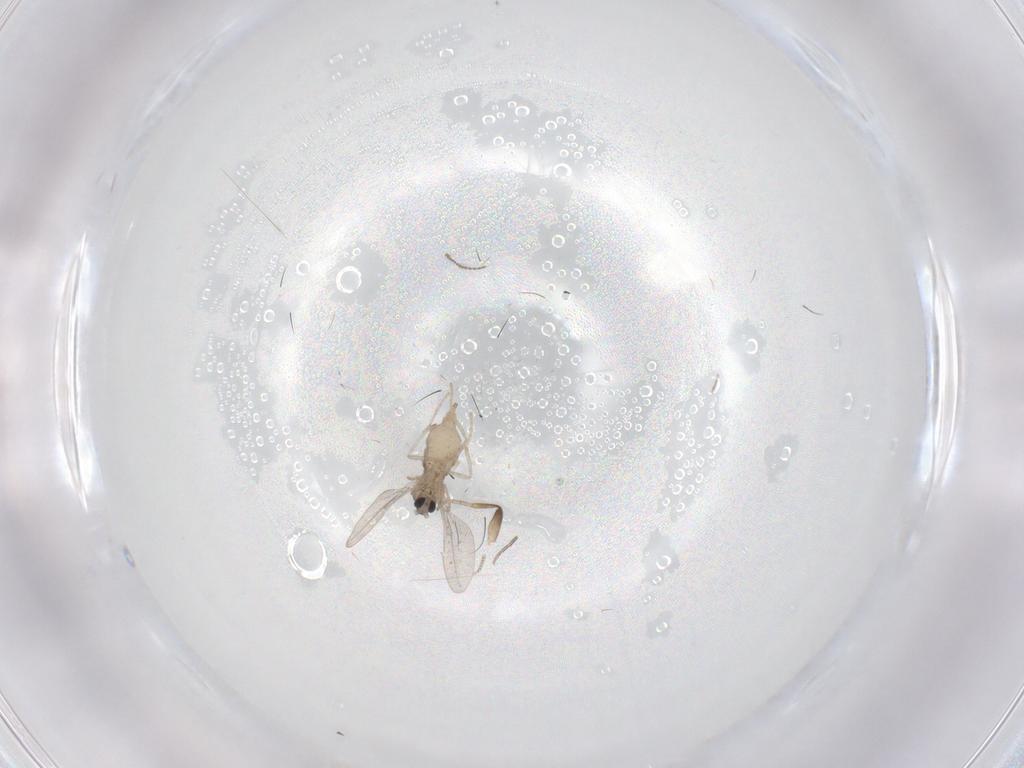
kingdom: Animalia
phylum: Arthropoda
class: Insecta
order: Diptera
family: Cecidomyiidae
